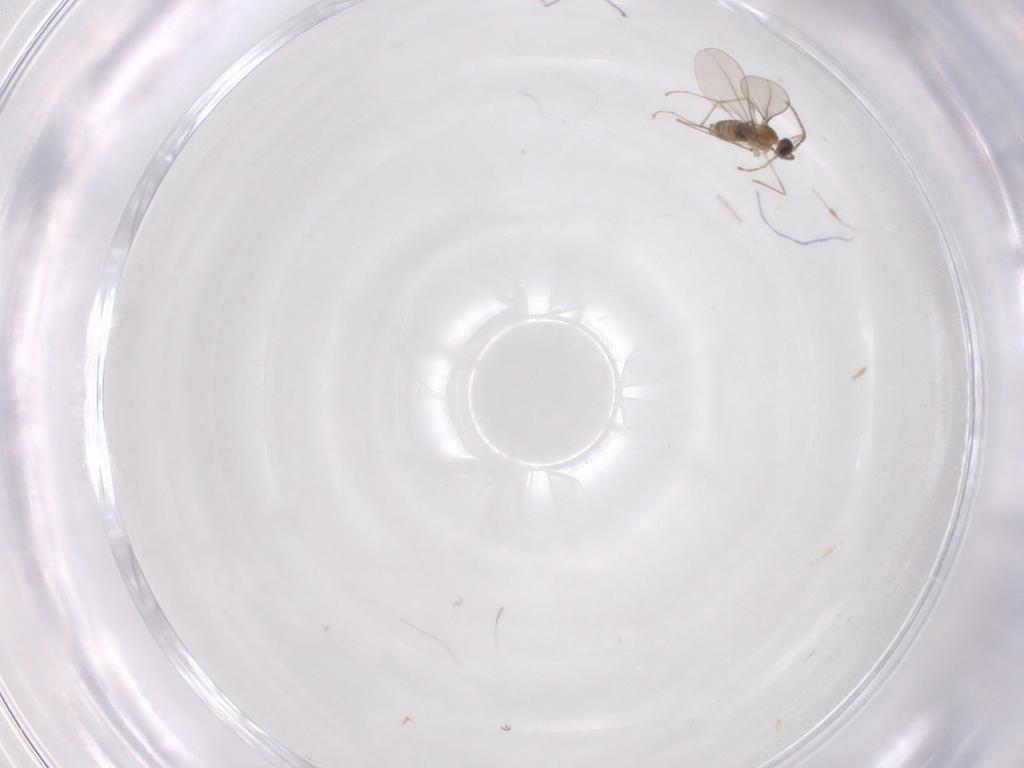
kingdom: Animalia
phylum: Arthropoda
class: Insecta
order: Diptera
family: Cecidomyiidae
